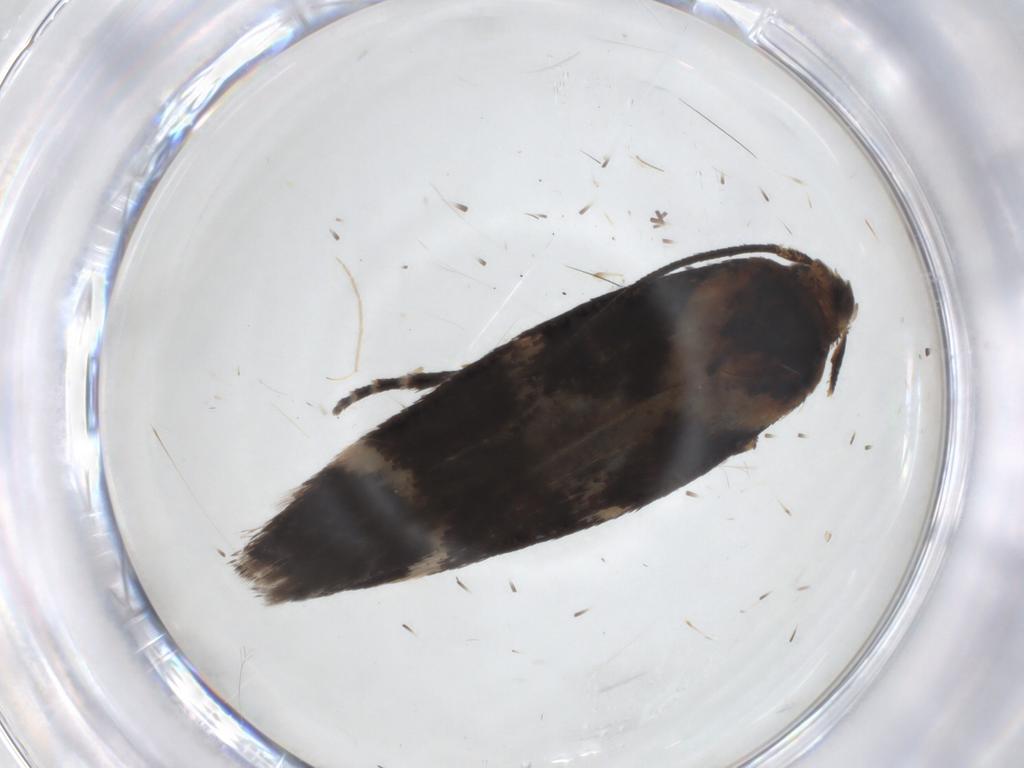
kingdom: Animalia
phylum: Arthropoda
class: Insecta
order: Lepidoptera
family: Momphidae
